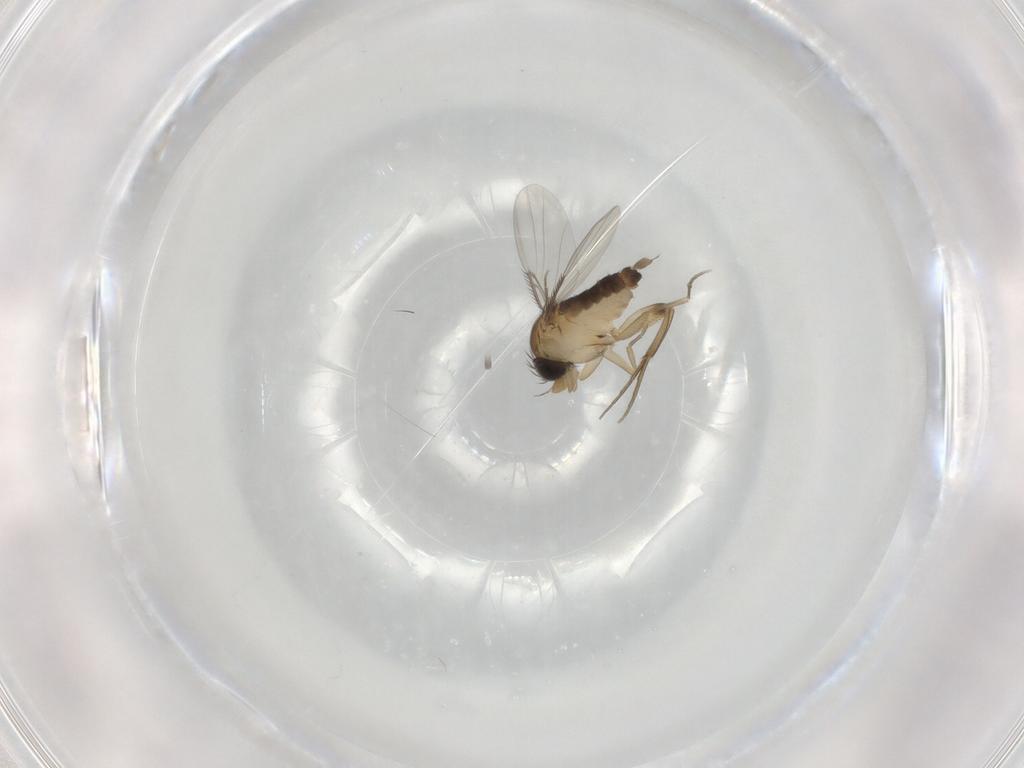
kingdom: Animalia
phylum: Arthropoda
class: Insecta
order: Diptera
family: Phoridae
